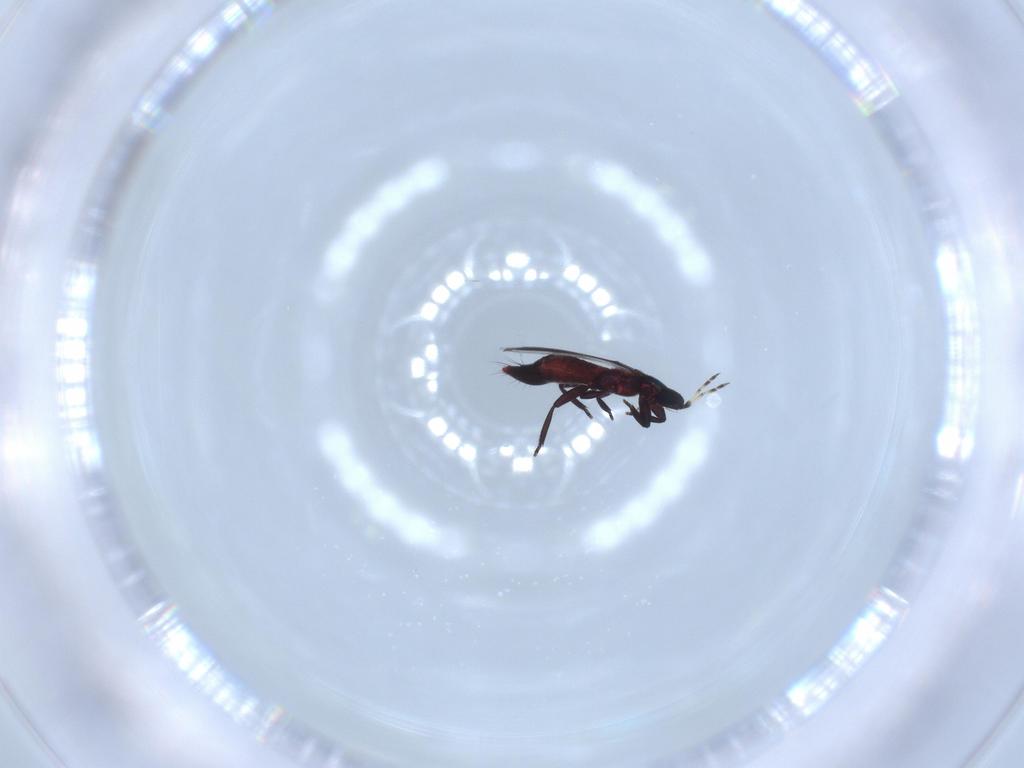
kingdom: Animalia
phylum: Arthropoda
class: Insecta
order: Thysanoptera
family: Aeolothripidae
